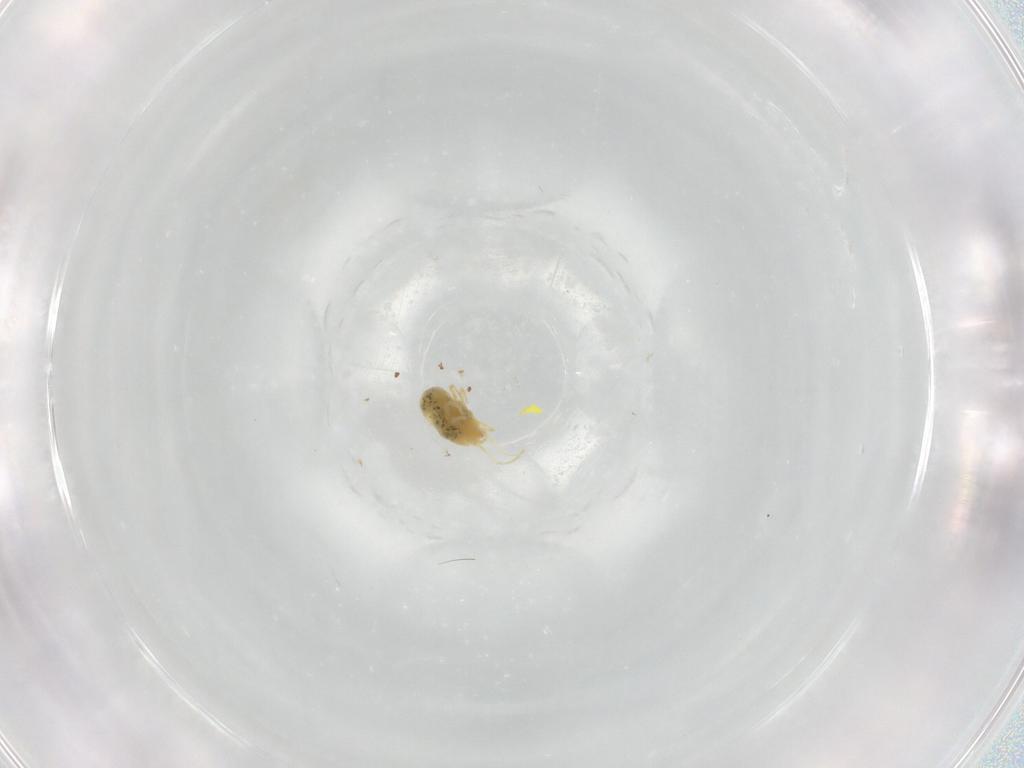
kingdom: Animalia
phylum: Arthropoda
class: Arachnida
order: Trombidiformes
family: Tetranychidae
